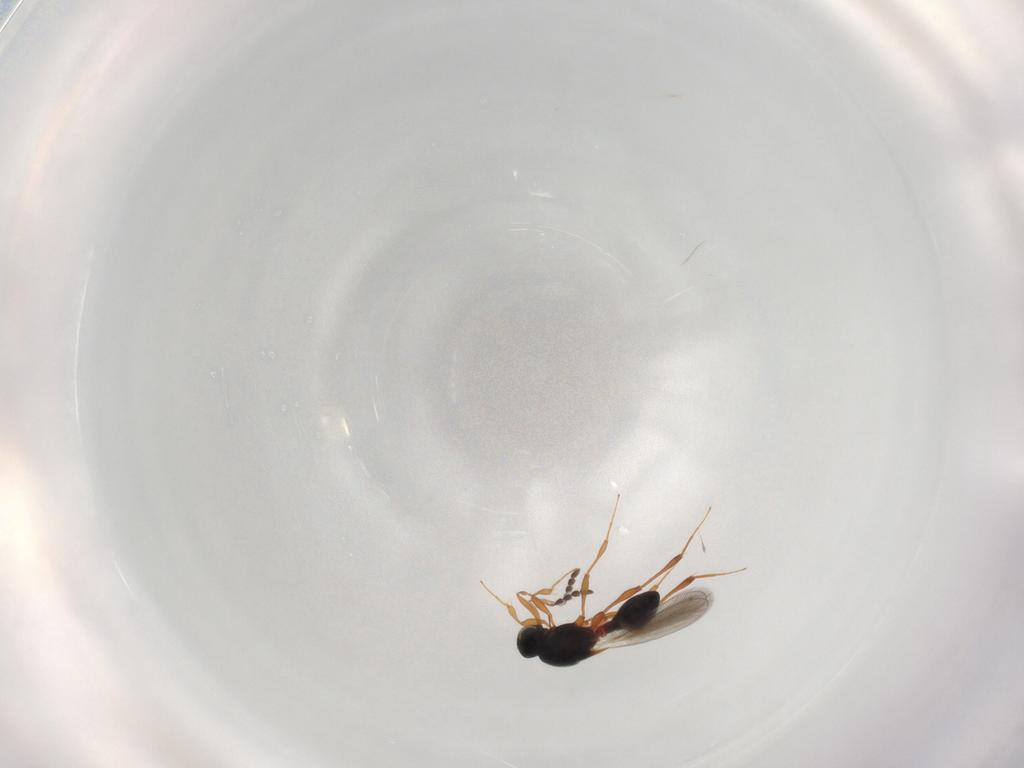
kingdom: Animalia
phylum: Arthropoda
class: Insecta
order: Hymenoptera
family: Platygastridae
